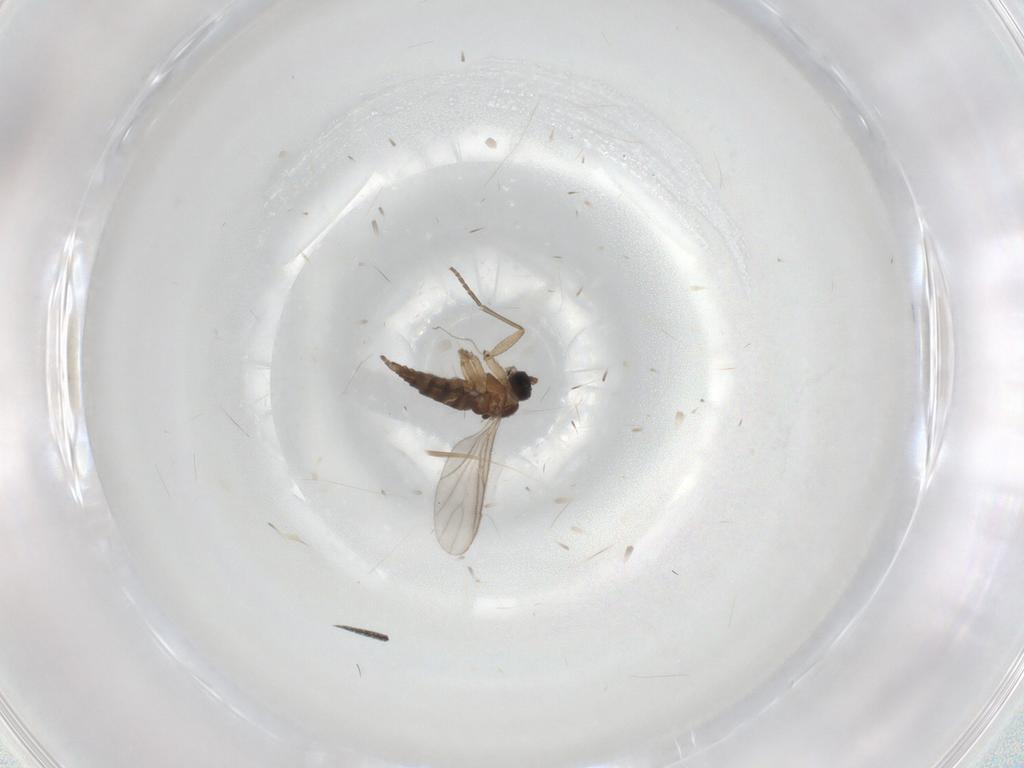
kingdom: Animalia
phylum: Arthropoda
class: Insecta
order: Diptera
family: Sciaridae
